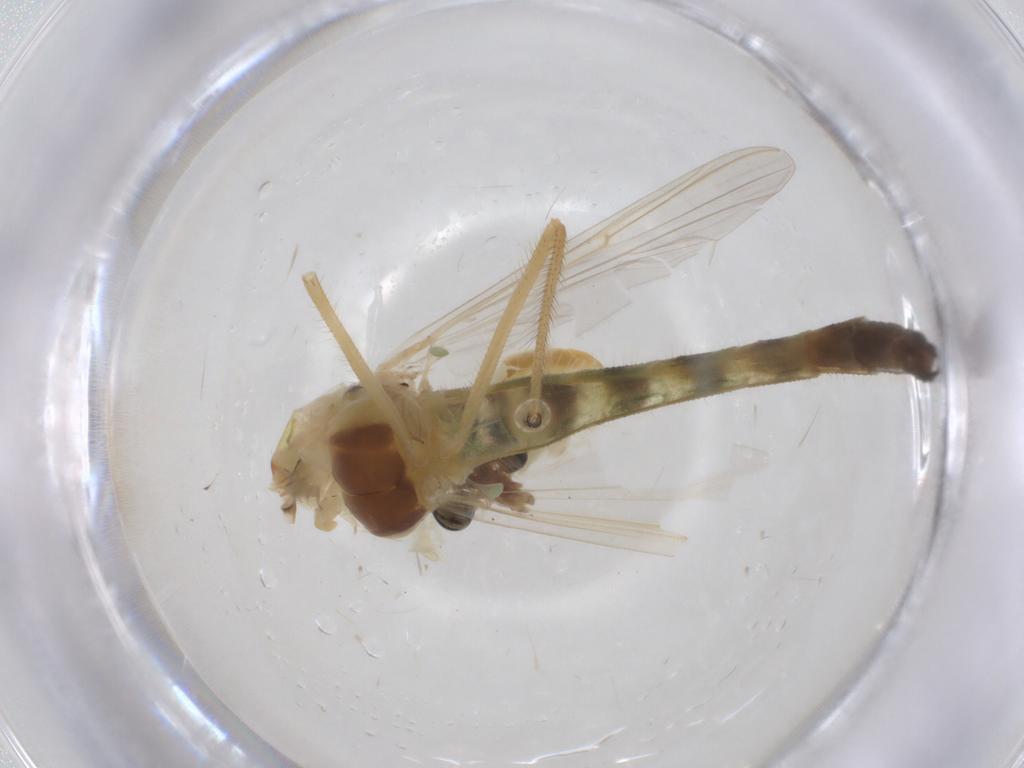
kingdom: Animalia
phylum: Arthropoda
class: Insecta
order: Diptera
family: Chironomidae
